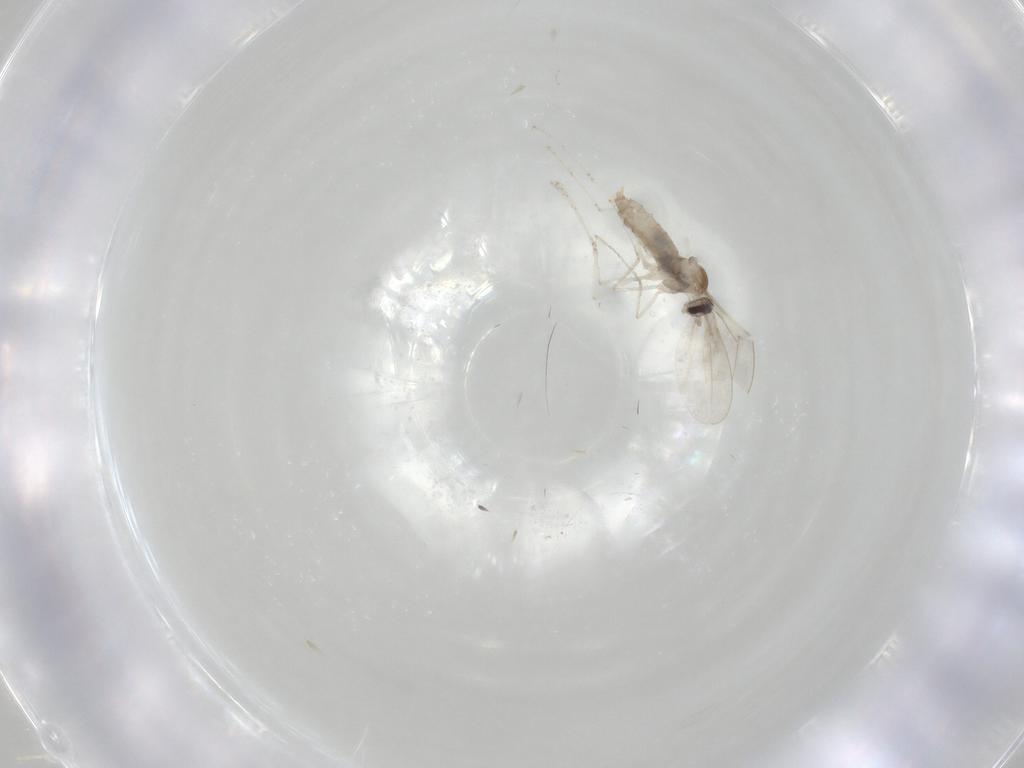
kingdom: Animalia
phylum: Arthropoda
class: Insecta
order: Diptera
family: Cecidomyiidae
